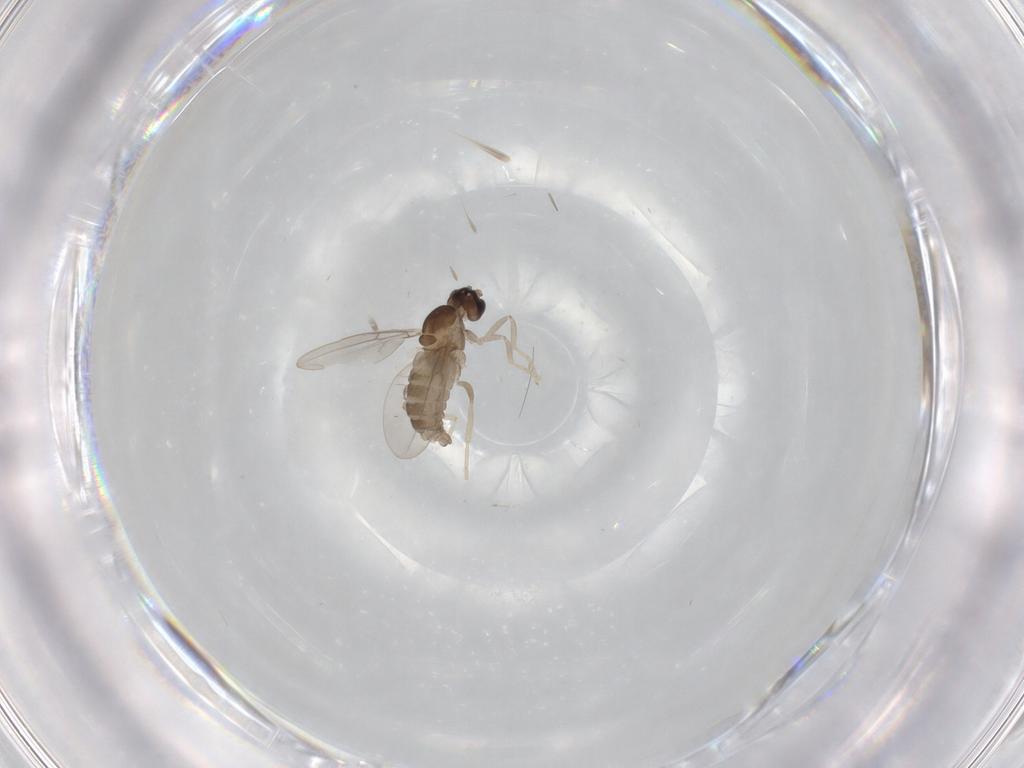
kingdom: Animalia
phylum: Arthropoda
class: Insecta
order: Diptera
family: Cecidomyiidae
